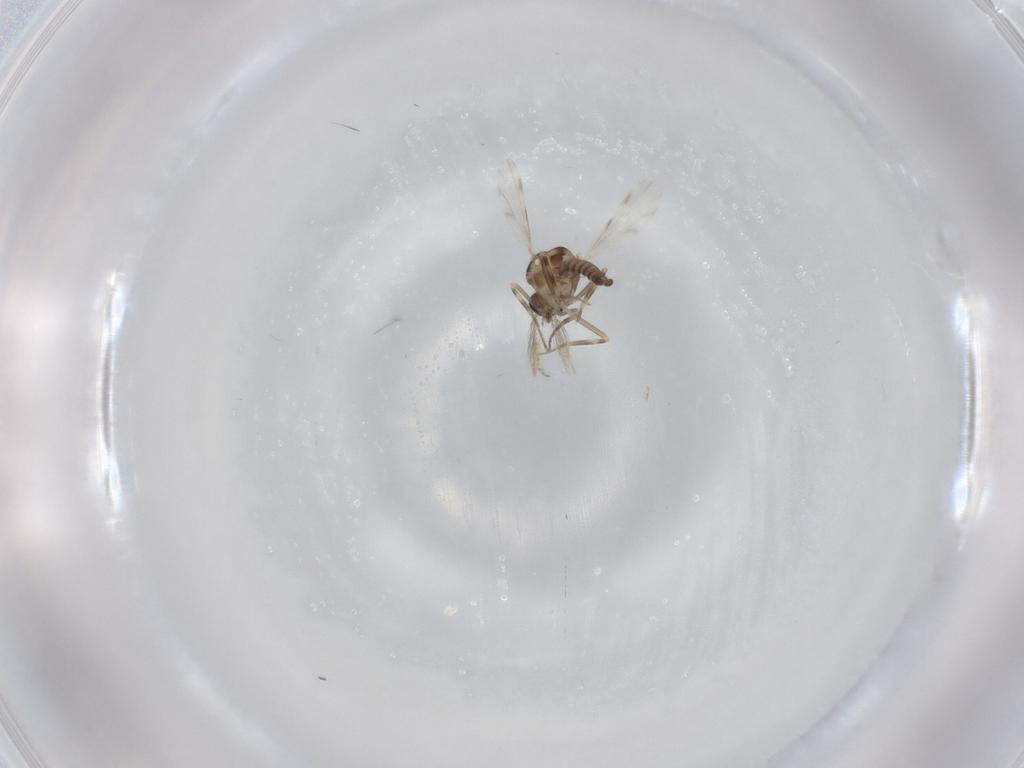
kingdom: Animalia
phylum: Arthropoda
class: Insecta
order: Diptera
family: Ceratopogonidae
